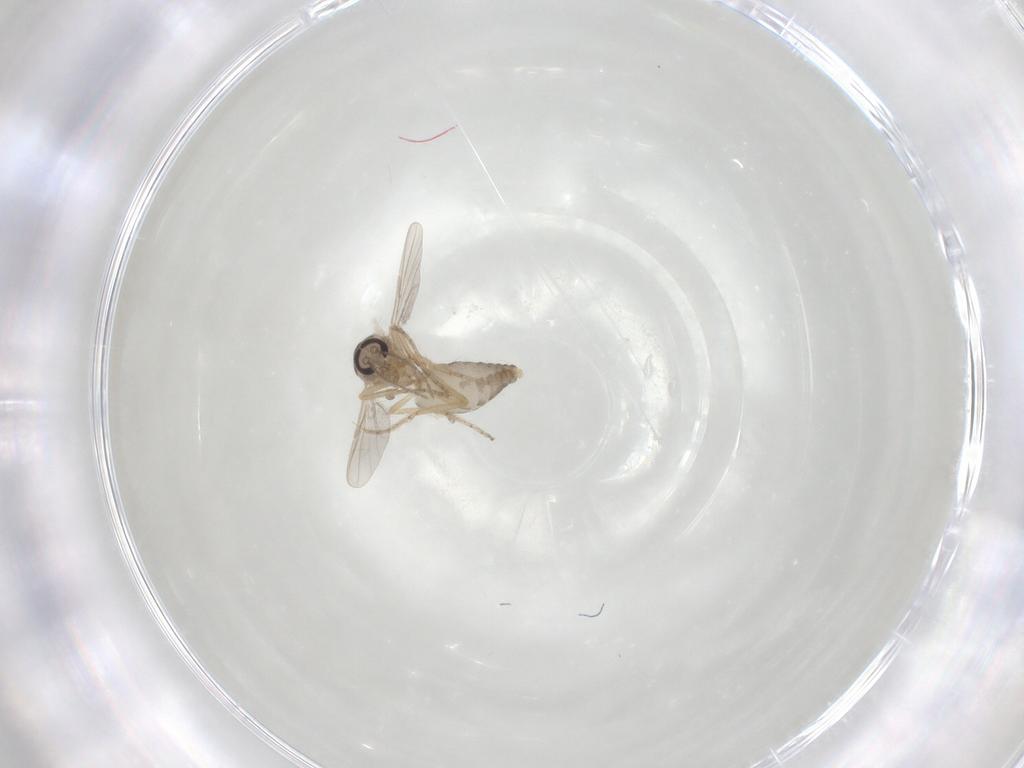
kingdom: Animalia
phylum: Arthropoda
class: Insecta
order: Diptera
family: Ceratopogonidae
